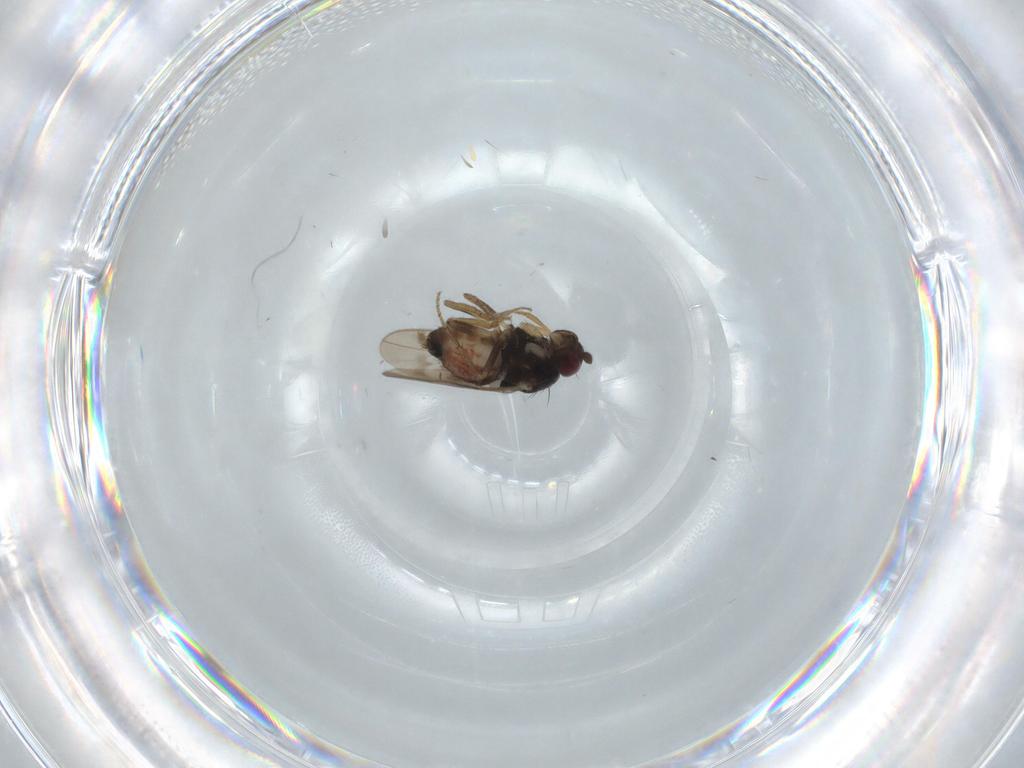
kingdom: Animalia
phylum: Arthropoda
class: Insecta
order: Diptera
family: Sphaeroceridae
